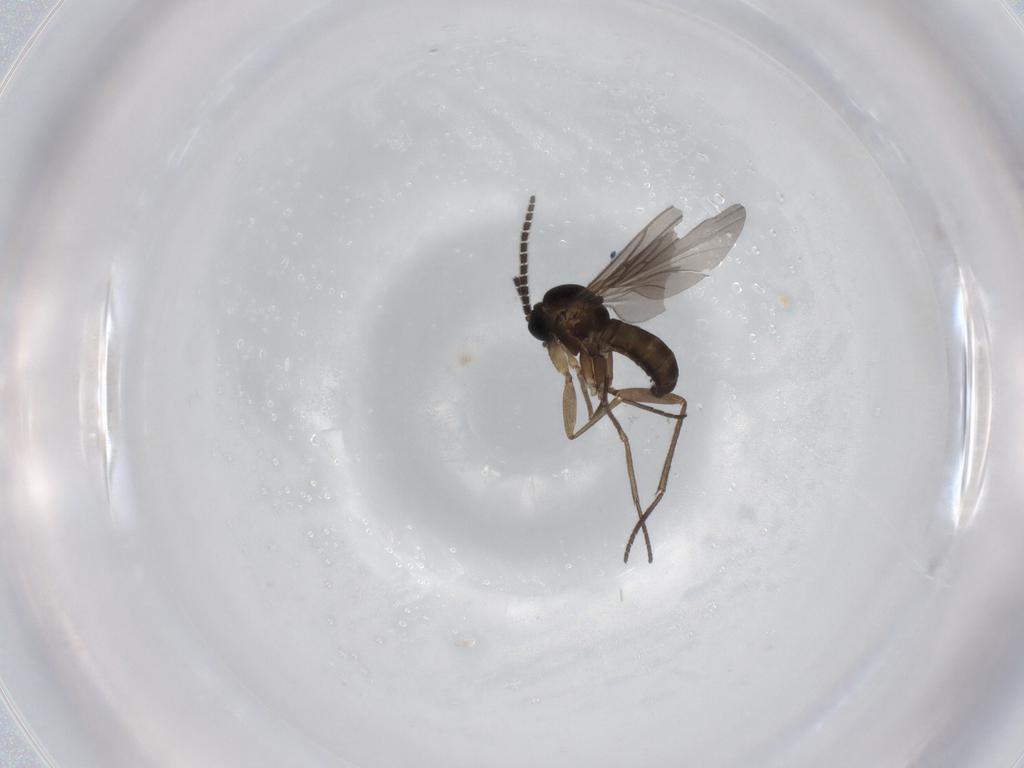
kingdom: Animalia
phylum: Arthropoda
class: Insecta
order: Diptera
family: Sciaridae
